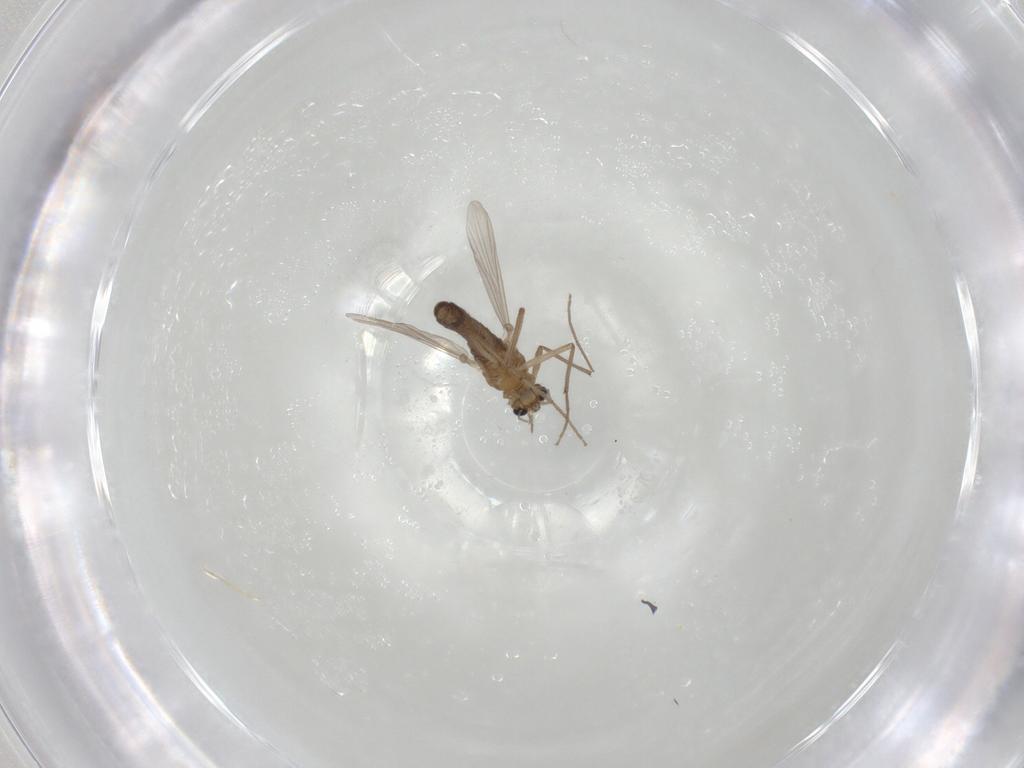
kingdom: Animalia
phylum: Arthropoda
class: Insecta
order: Diptera
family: Chironomidae
